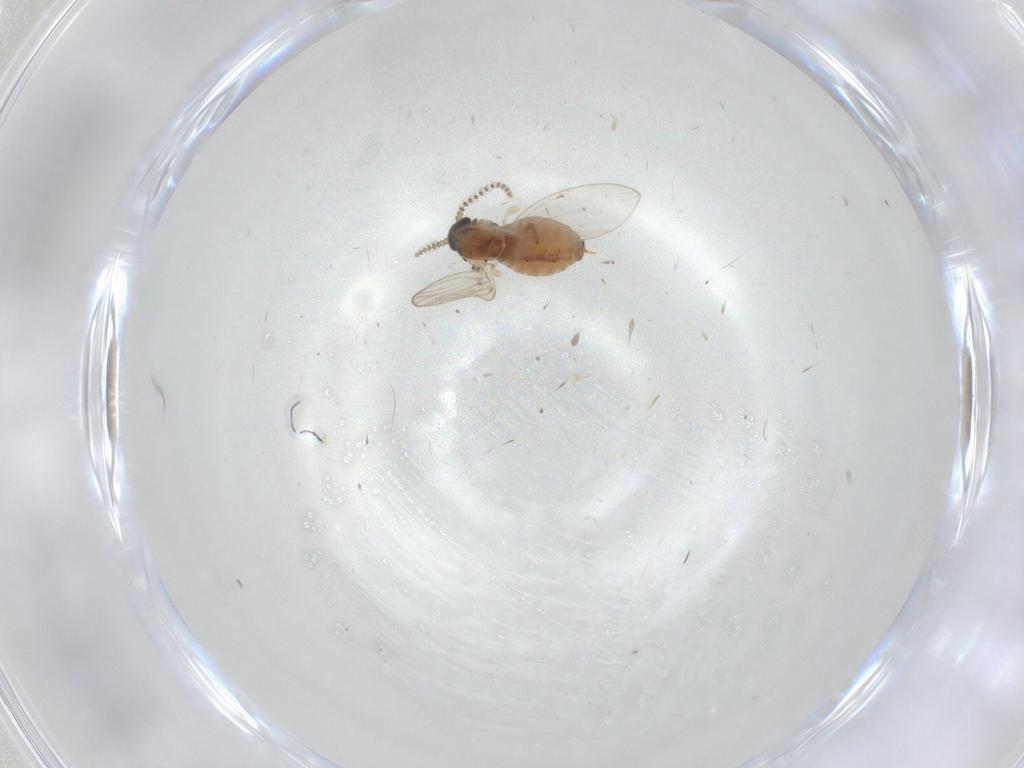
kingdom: Animalia
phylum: Arthropoda
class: Insecta
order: Diptera
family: Psychodidae
